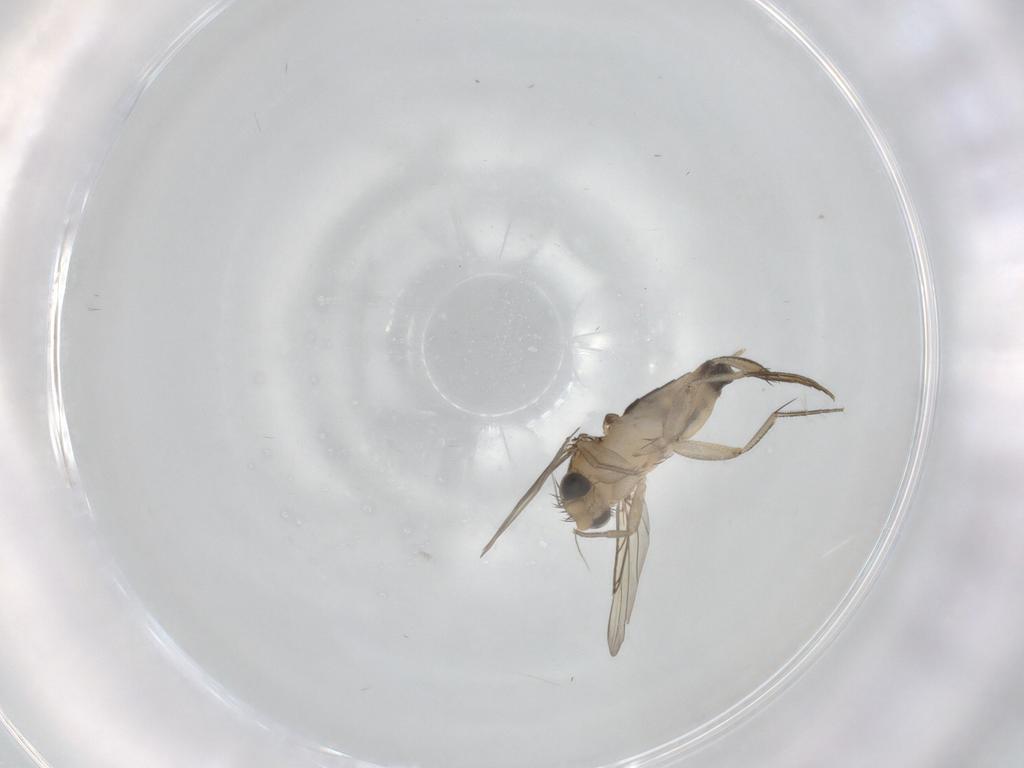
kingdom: Animalia
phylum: Arthropoda
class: Insecta
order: Diptera
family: Phoridae
